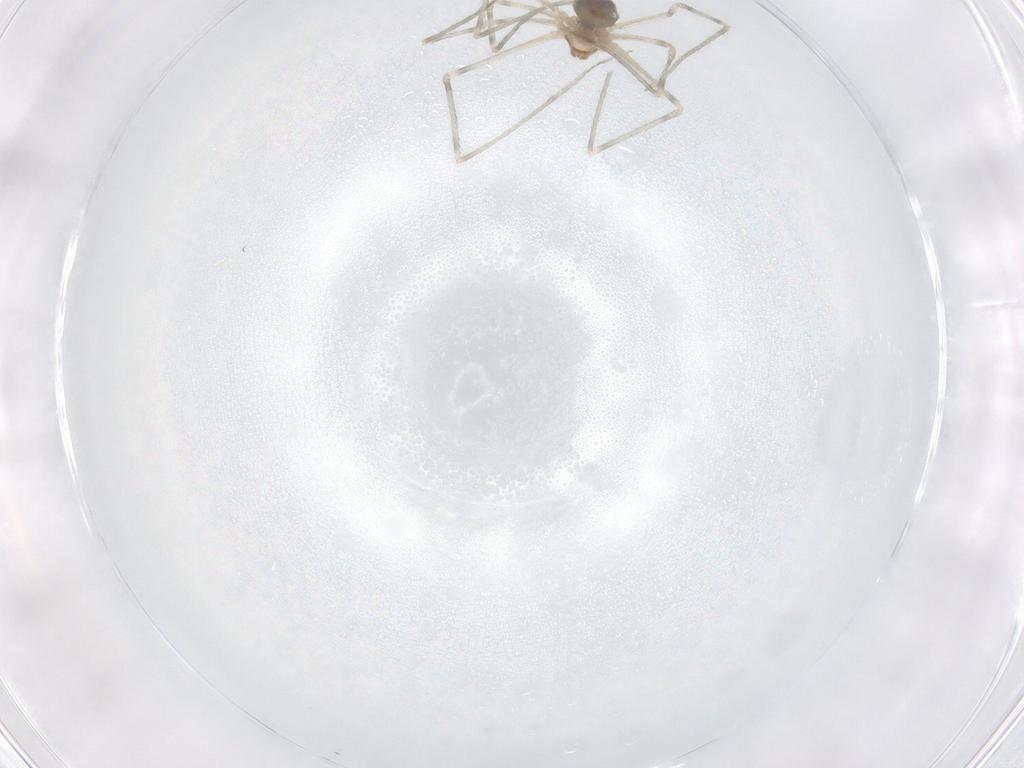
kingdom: Animalia
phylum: Arthropoda
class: Arachnida
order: Araneae
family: Pholcidae
